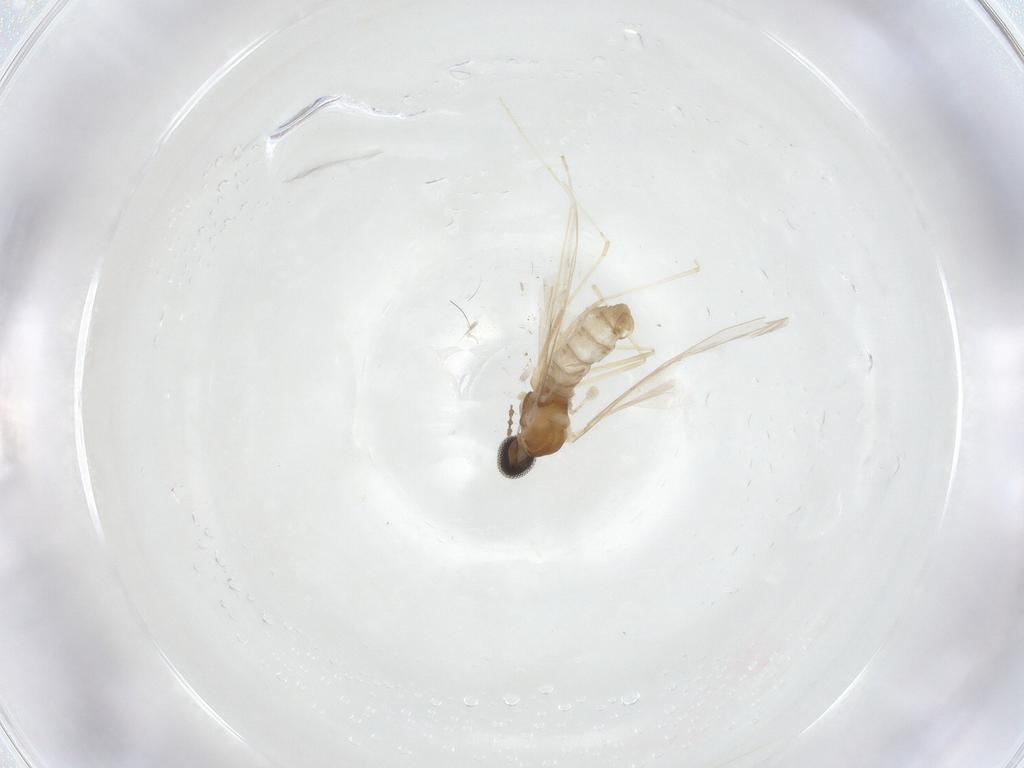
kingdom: Animalia
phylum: Arthropoda
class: Insecta
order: Diptera
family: Cecidomyiidae
